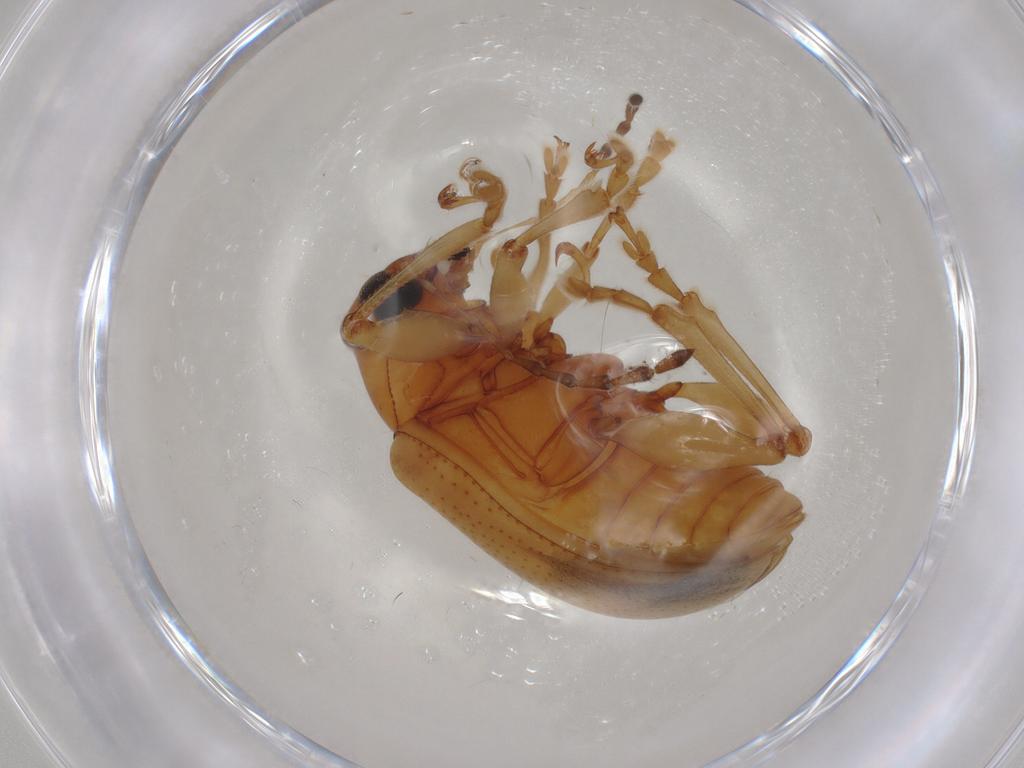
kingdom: Animalia
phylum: Arthropoda
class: Insecta
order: Coleoptera
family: Chrysomelidae
